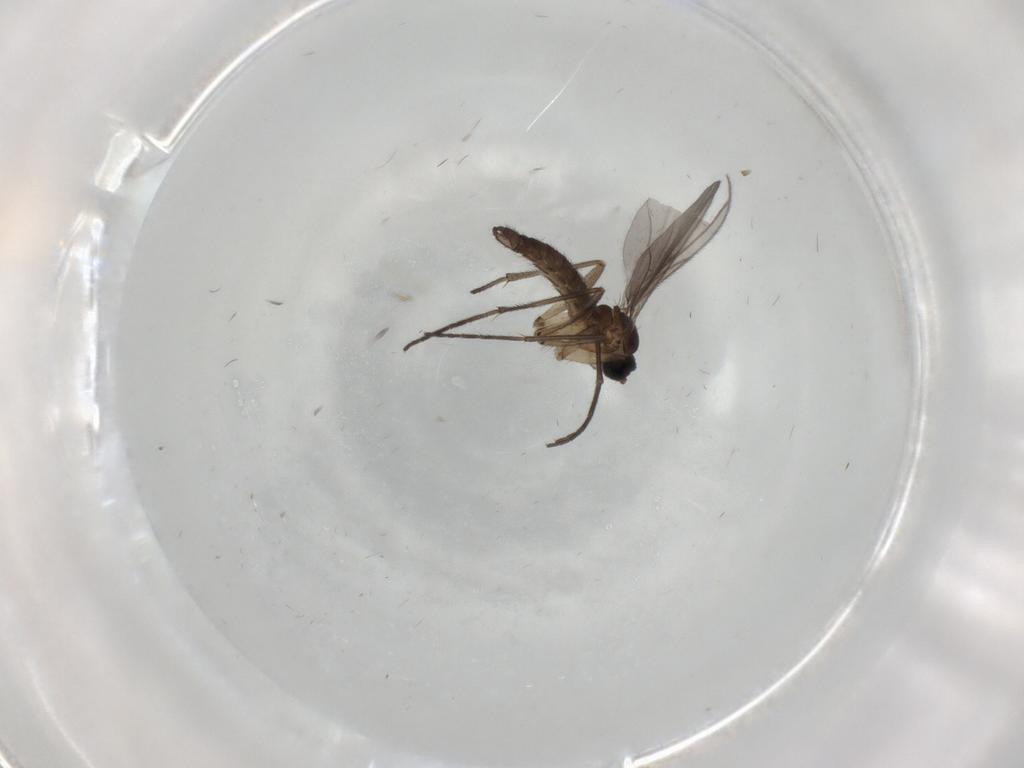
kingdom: Animalia
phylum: Arthropoda
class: Insecta
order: Diptera
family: Sciaridae
